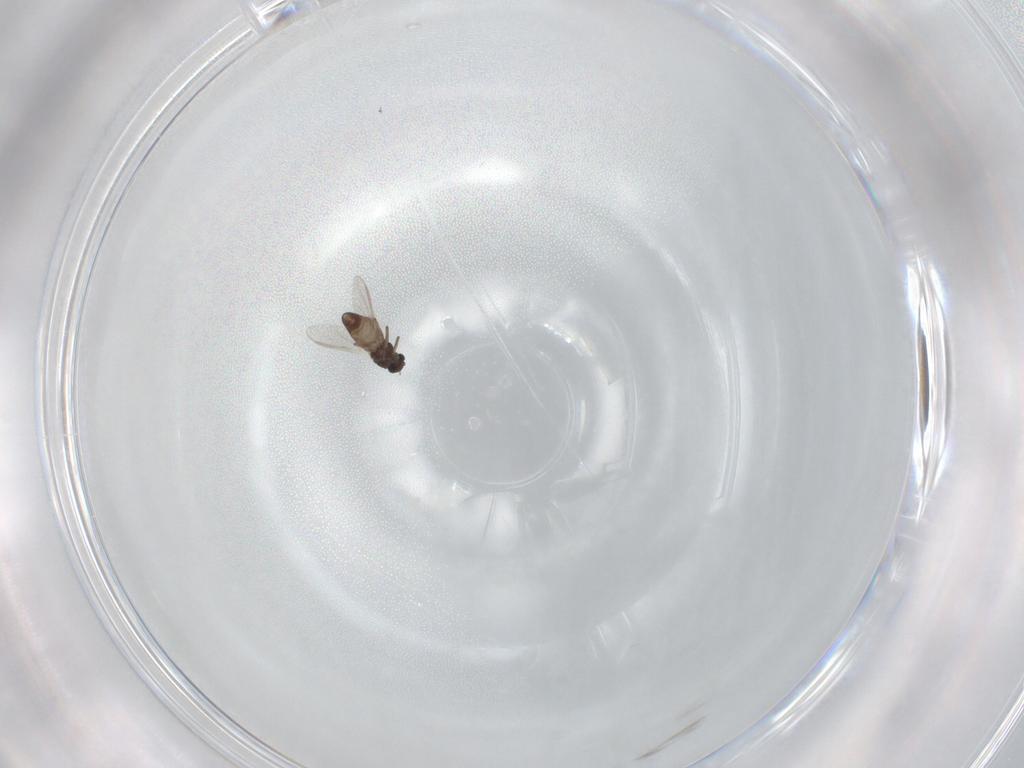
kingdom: Animalia
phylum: Arthropoda
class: Insecta
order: Diptera
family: Chironomidae
